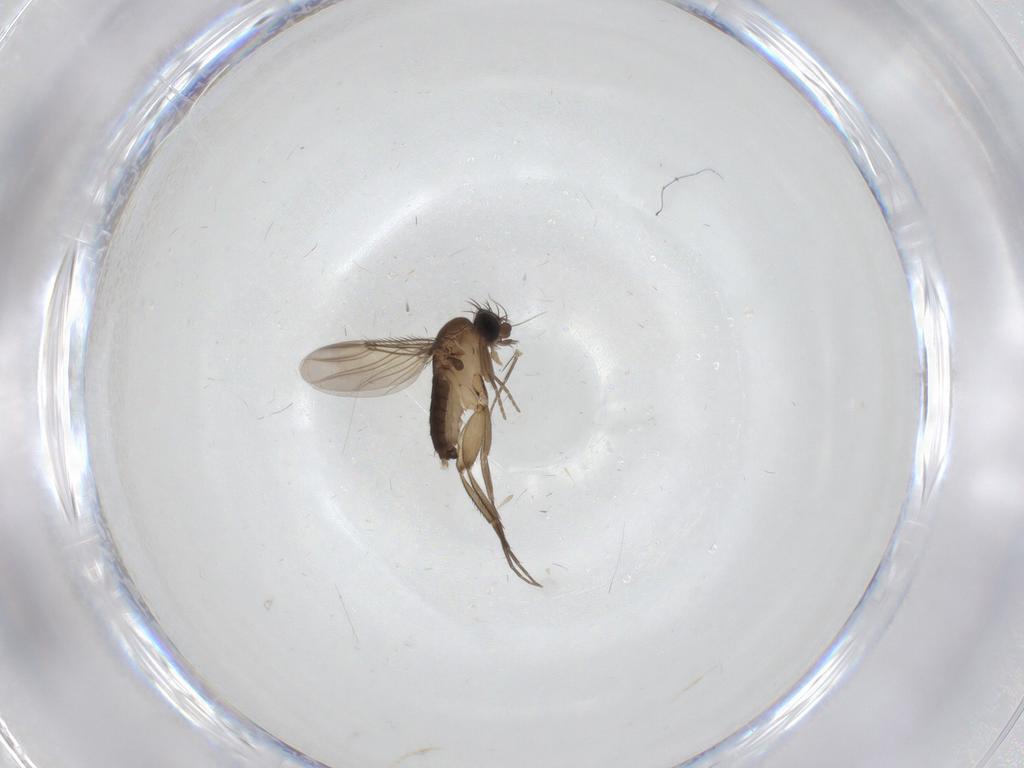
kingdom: Animalia
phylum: Arthropoda
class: Insecta
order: Diptera
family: Phoridae
